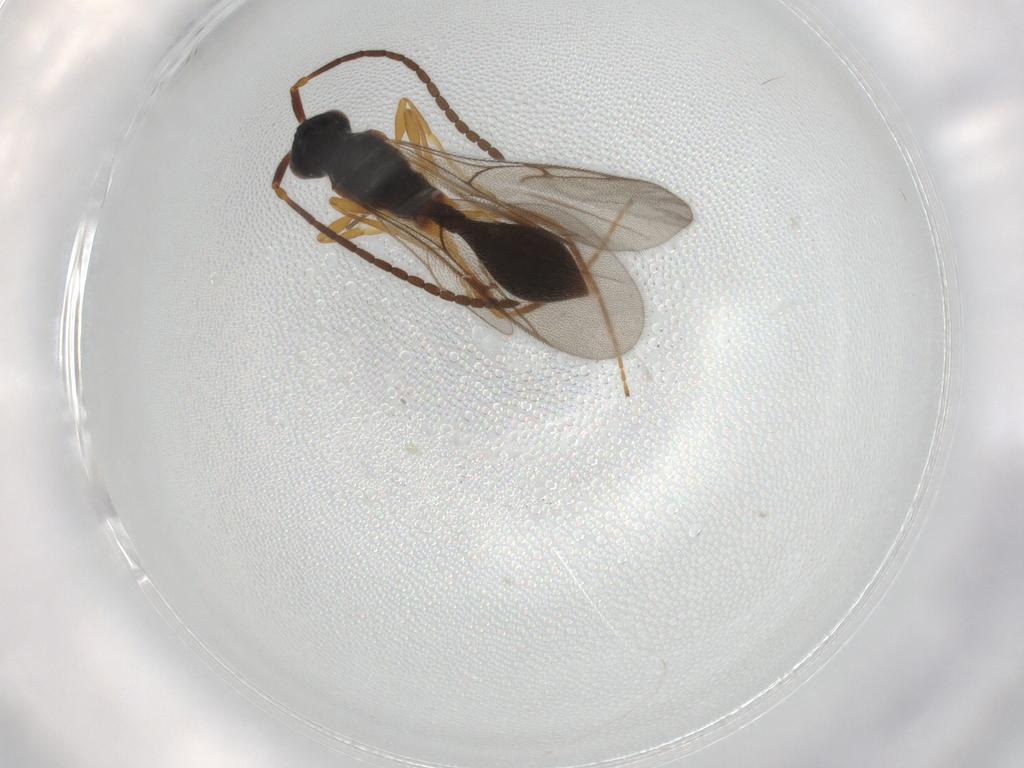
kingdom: Animalia
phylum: Arthropoda
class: Insecta
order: Hymenoptera
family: Diapriidae
